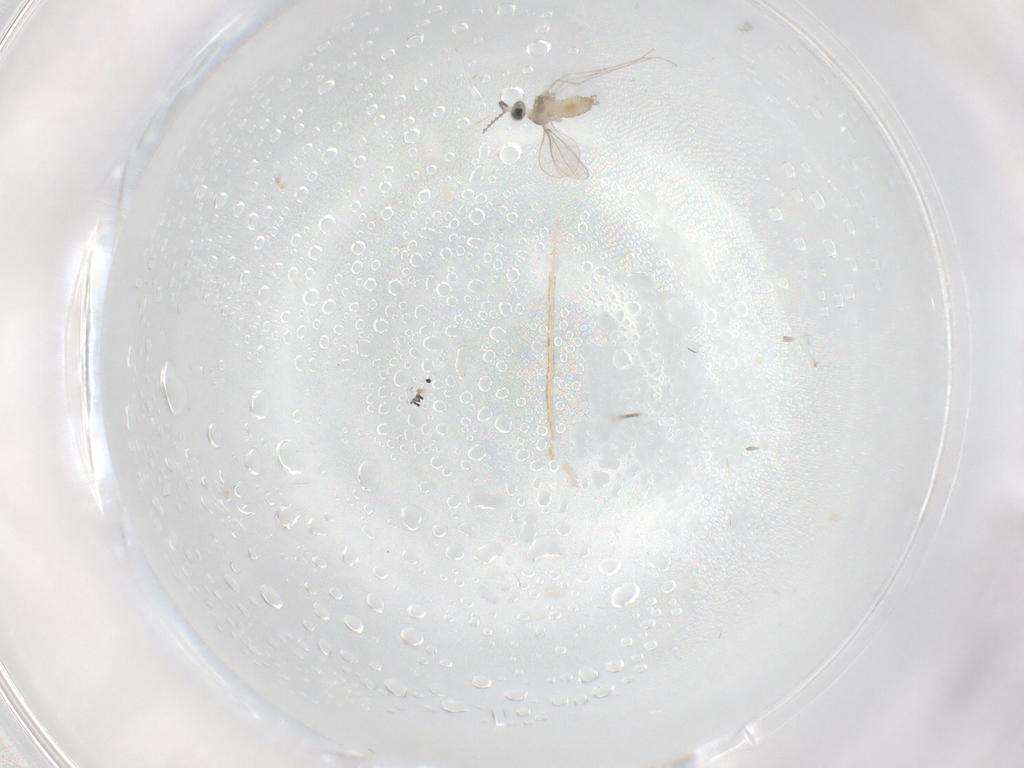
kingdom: Animalia
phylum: Arthropoda
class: Insecta
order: Diptera
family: Cecidomyiidae
